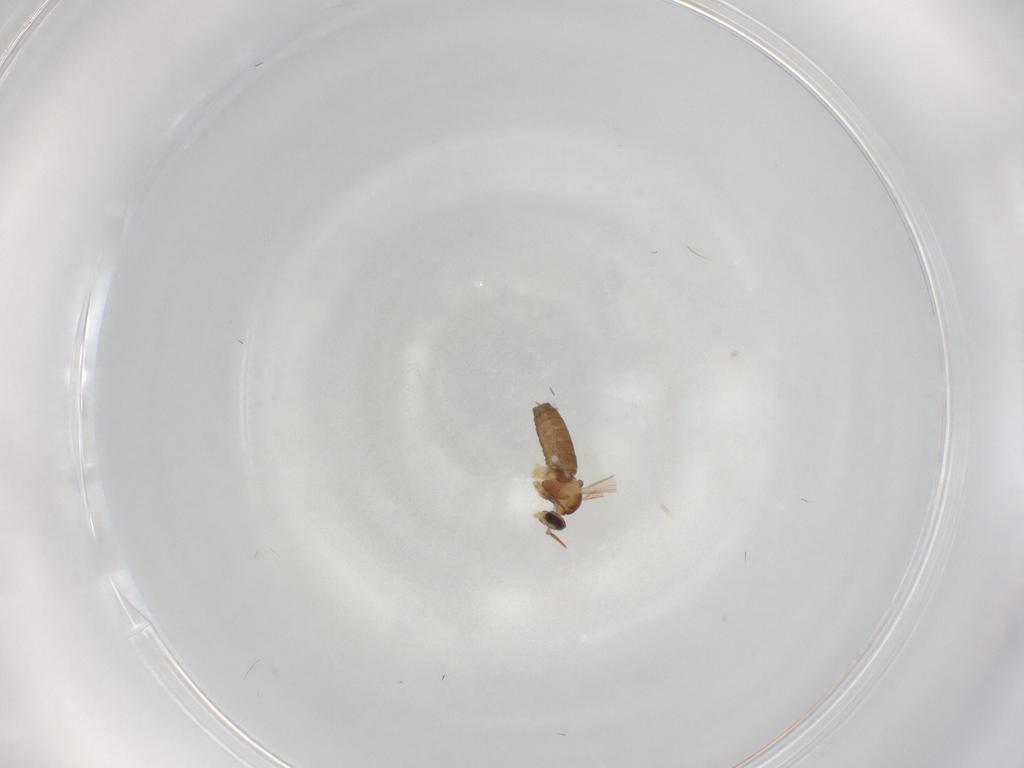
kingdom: Animalia
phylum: Arthropoda
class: Insecta
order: Diptera
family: Cecidomyiidae
